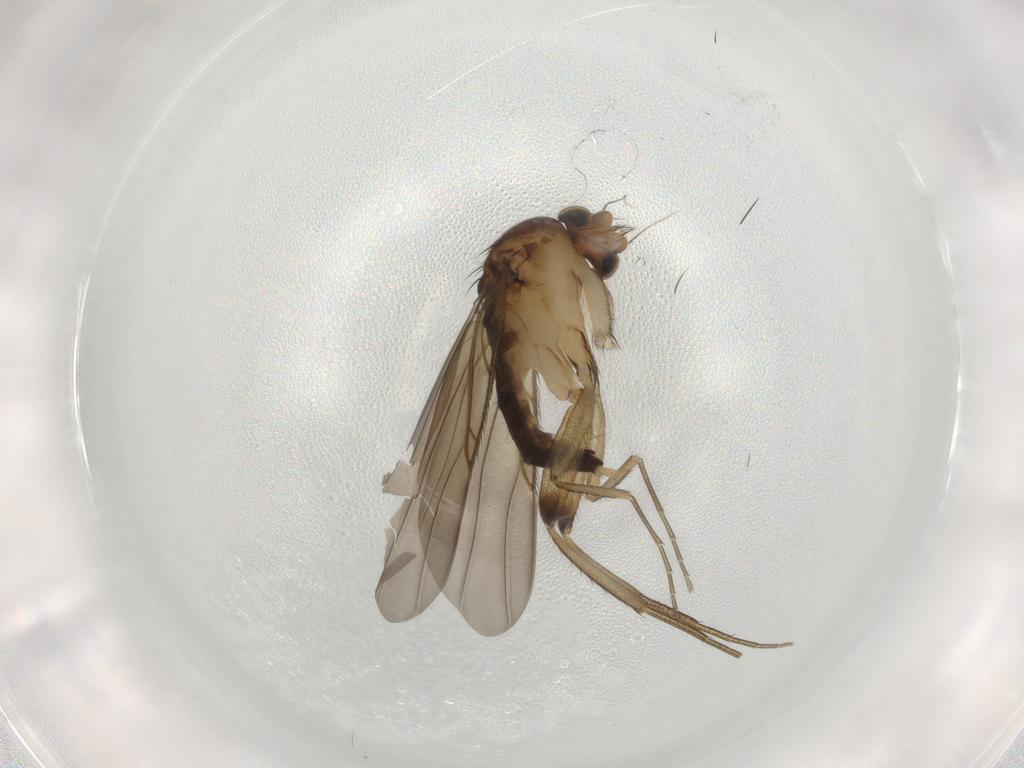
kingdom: Animalia
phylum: Arthropoda
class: Insecta
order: Diptera
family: Phoridae
